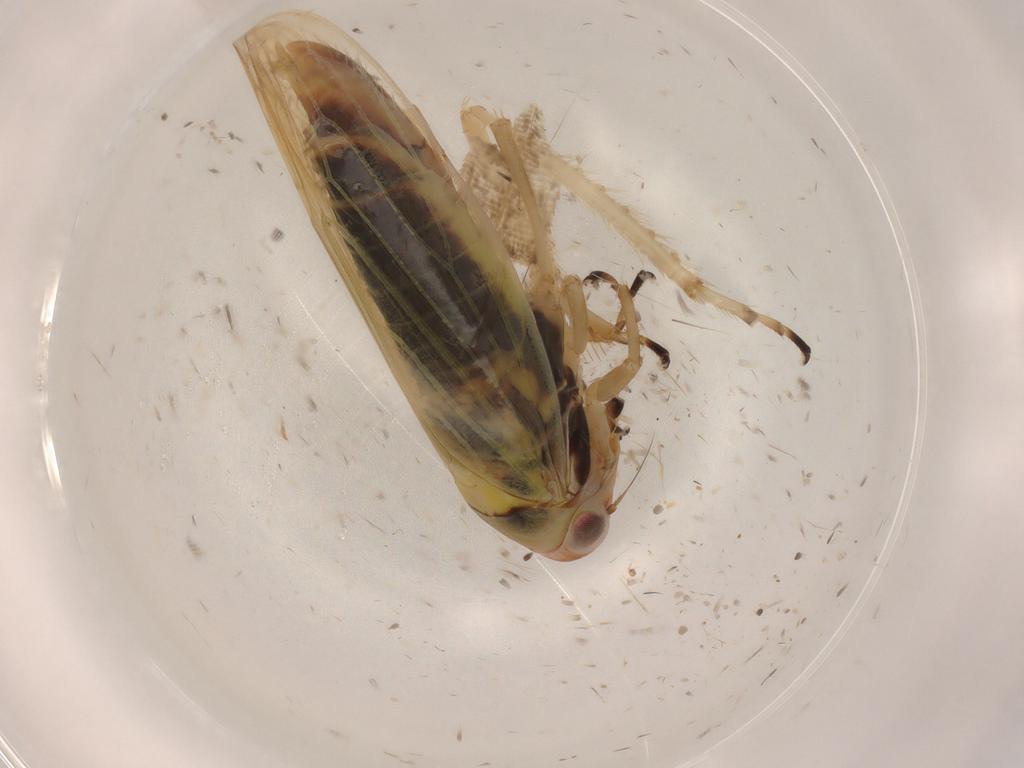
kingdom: Animalia
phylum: Arthropoda
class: Insecta
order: Hemiptera
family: Cicadellidae
